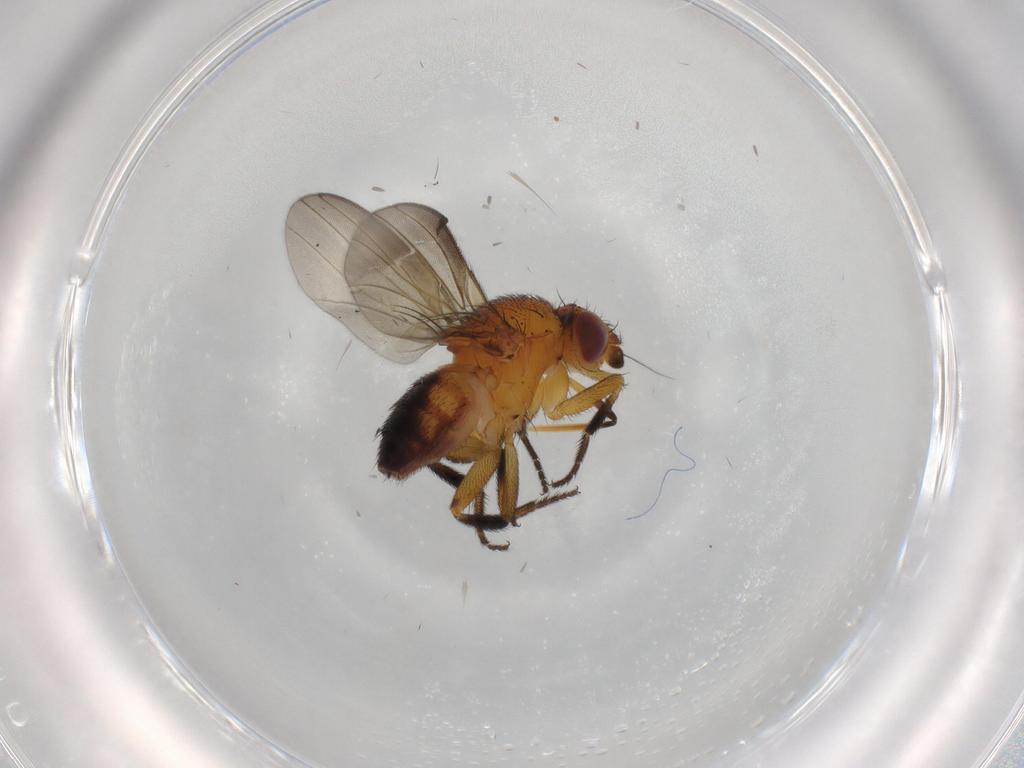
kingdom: Animalia
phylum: Arthropoda
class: Insecta
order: Diptera
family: Milichiidae
